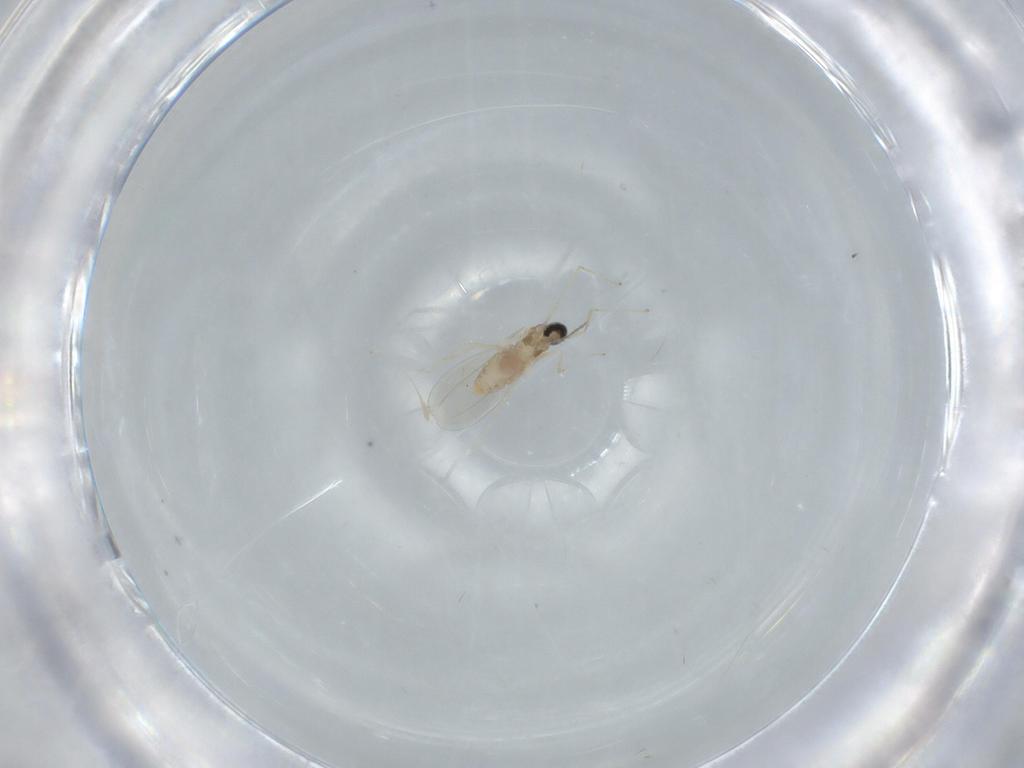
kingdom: Animalia
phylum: Arthropoda
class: Insecta
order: Diptera
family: Cecidomyiidae
